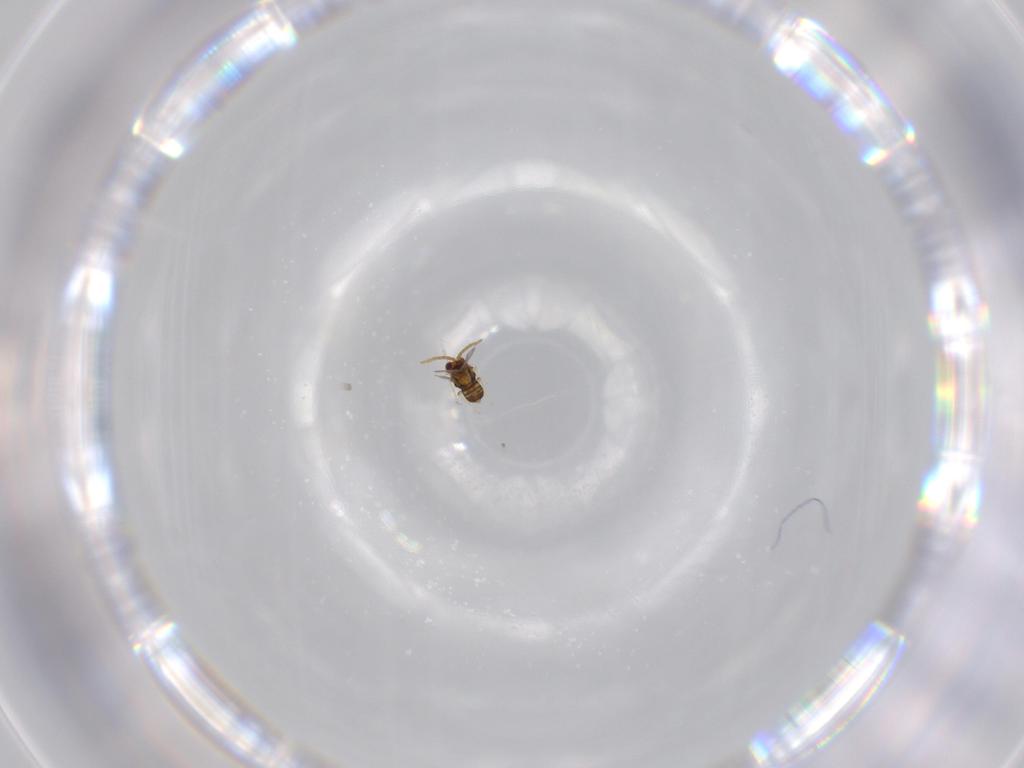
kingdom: Animalia
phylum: Arthropoda
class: Insecta
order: Hymenoptera
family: Aphelinidae
